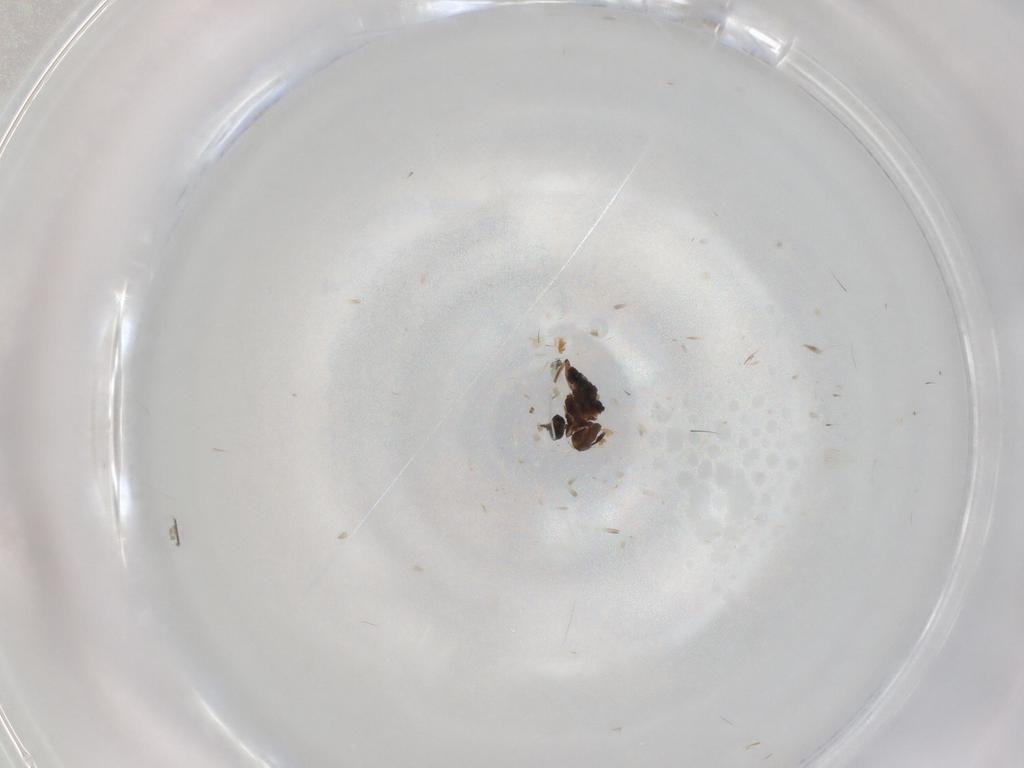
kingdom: Animalia
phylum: Arthropoda
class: Insecta
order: Diptera
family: Ceratopogonidae
